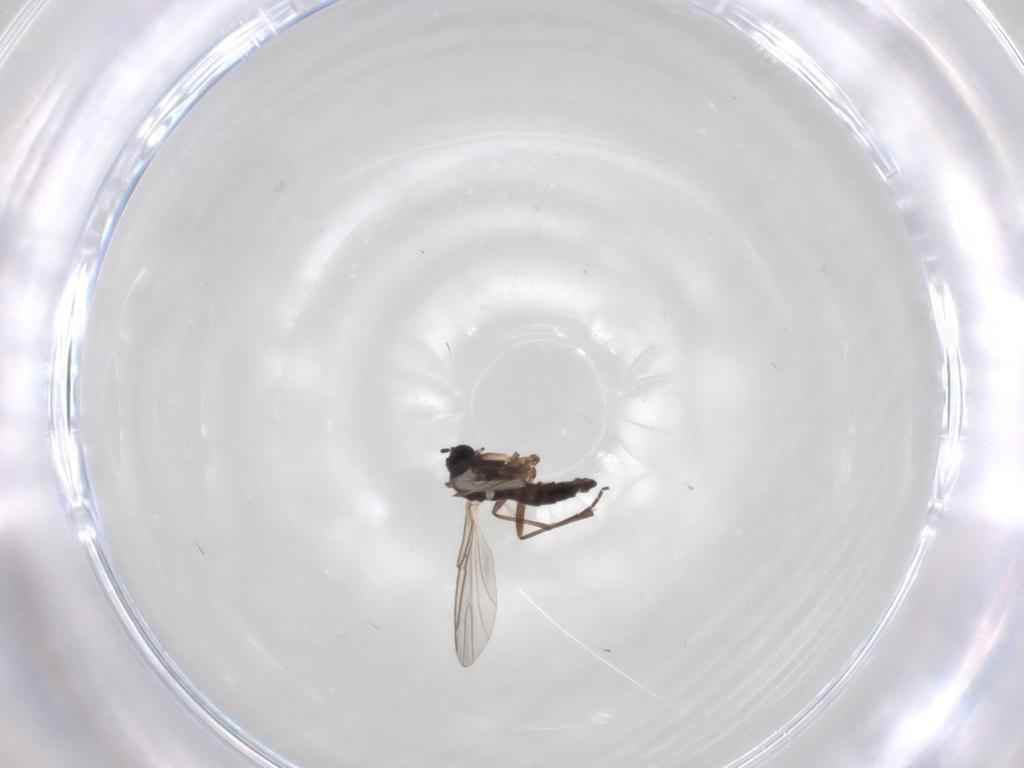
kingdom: Animalia
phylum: Arthropoda
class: Insecta
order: Diptera
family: Sciaridae
